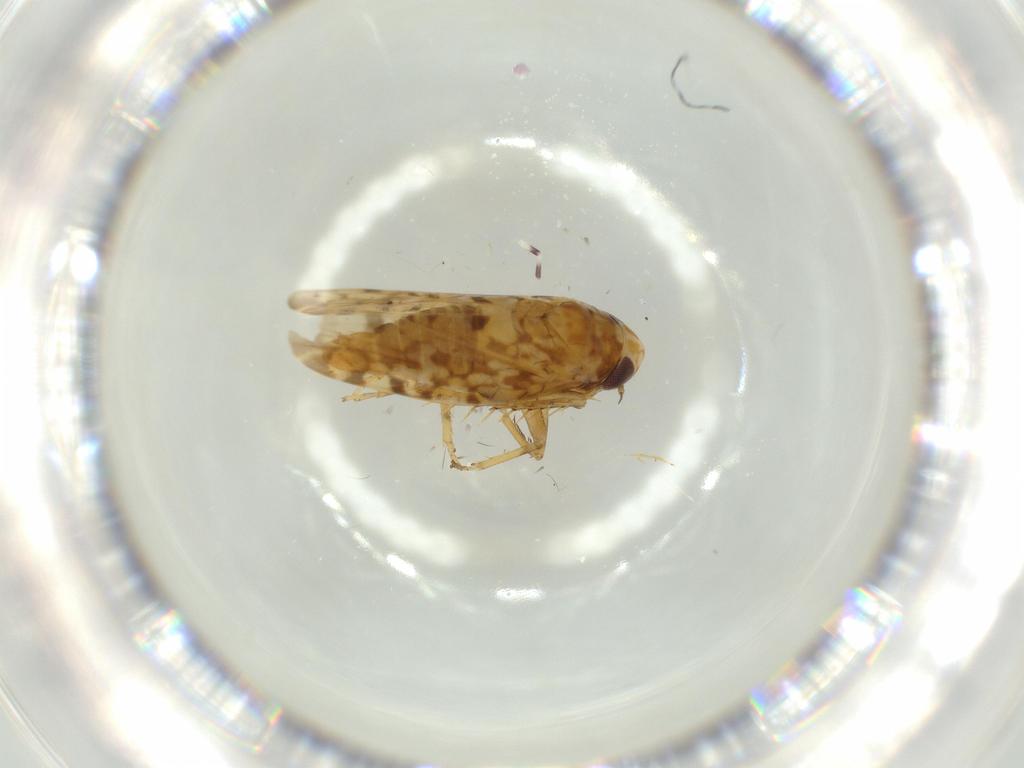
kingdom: Animalia
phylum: Arthropoda
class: Insecta
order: Hemiptera
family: Cicadellidae
